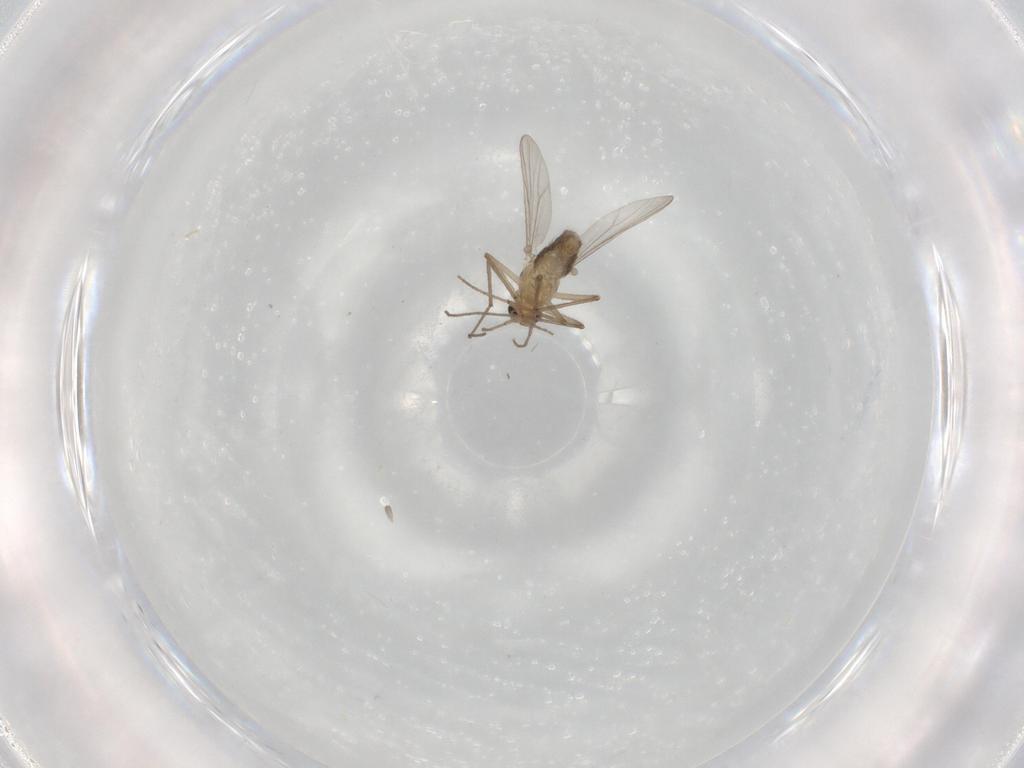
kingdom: Animalia
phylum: Arthropoda
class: Insecta
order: Diptera
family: Chironomidae
